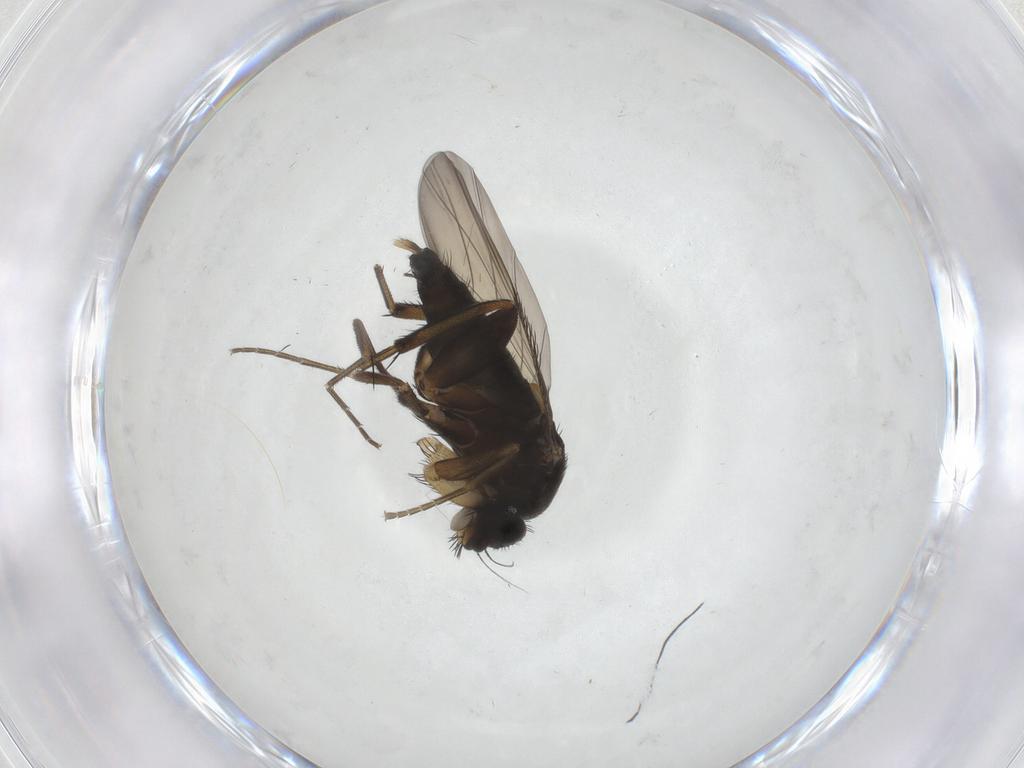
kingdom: Animalia
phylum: Arthropoda
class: Insecta
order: Diptera
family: Phoridae
